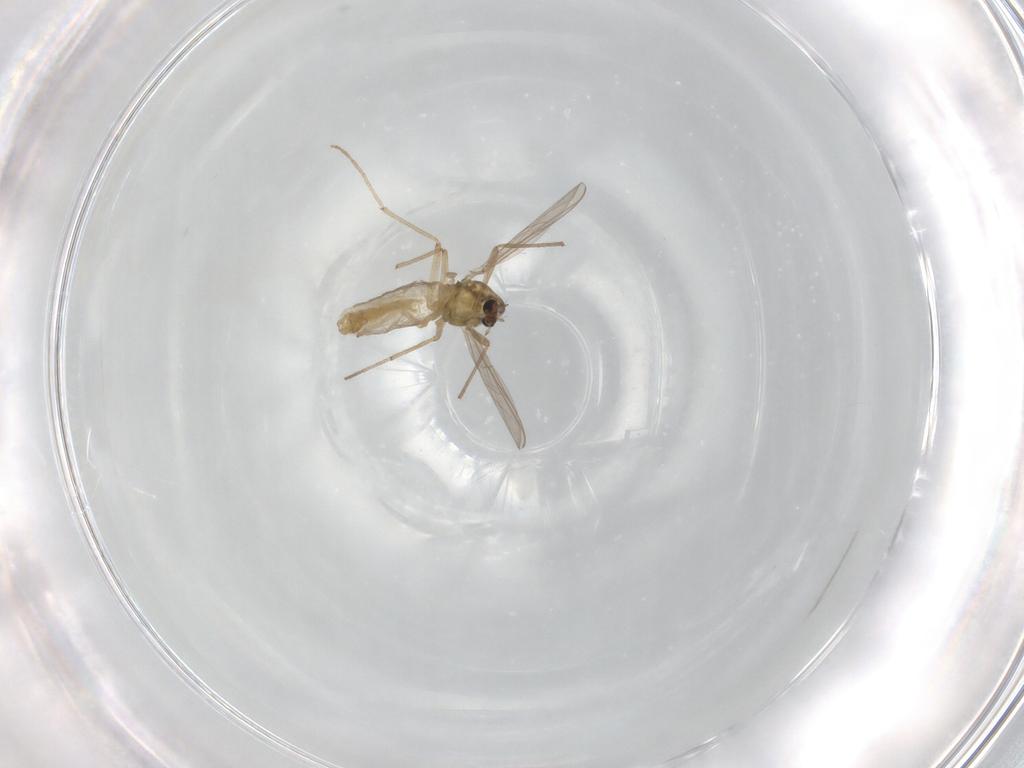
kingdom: Animalia
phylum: Arthropoda
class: Insecta
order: Diptera
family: Chironomidae
